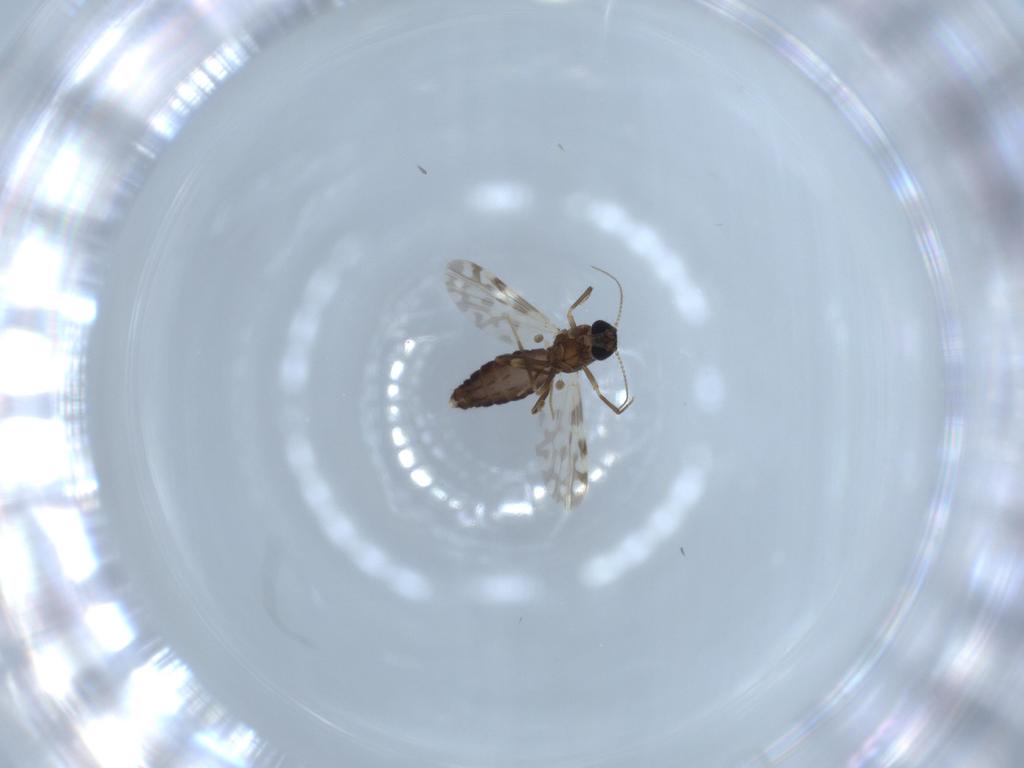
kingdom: Animalia
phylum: Arthropoda
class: Insecta
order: Diptera
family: Ceratopogonidae
